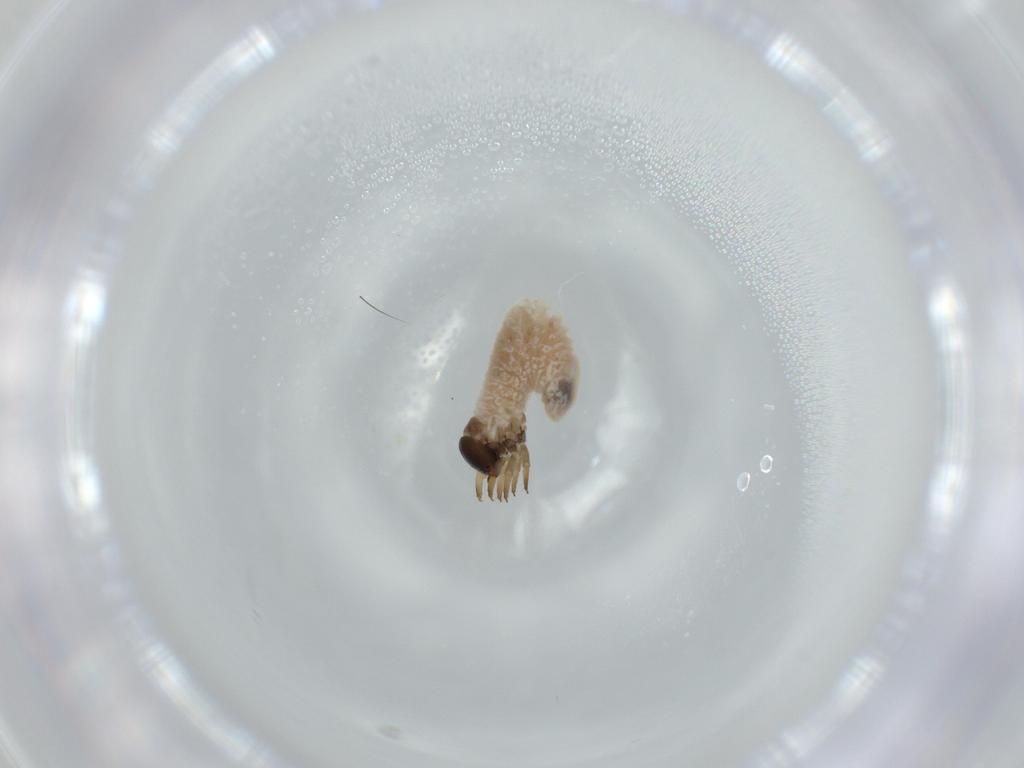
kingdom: Animalia
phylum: Arthropoda
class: Insecta
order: Coleoptera
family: Chrysomelidae
